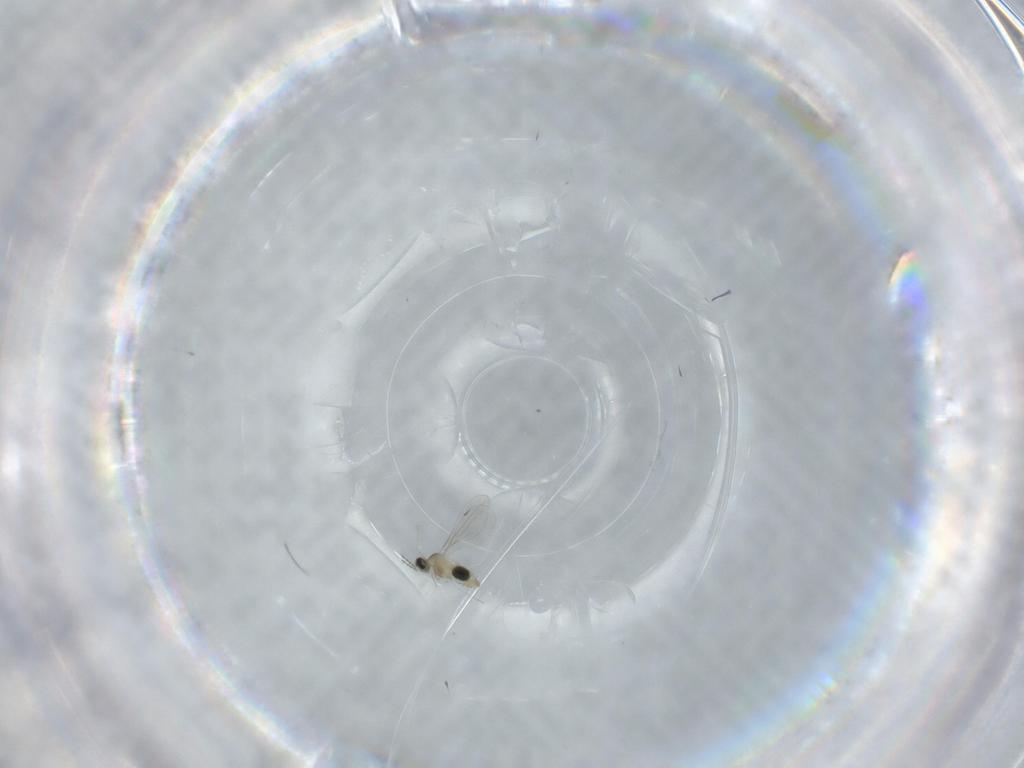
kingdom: Animalia
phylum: Arthropoda
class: Insecta
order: Diptera
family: Cecidomyiidae
